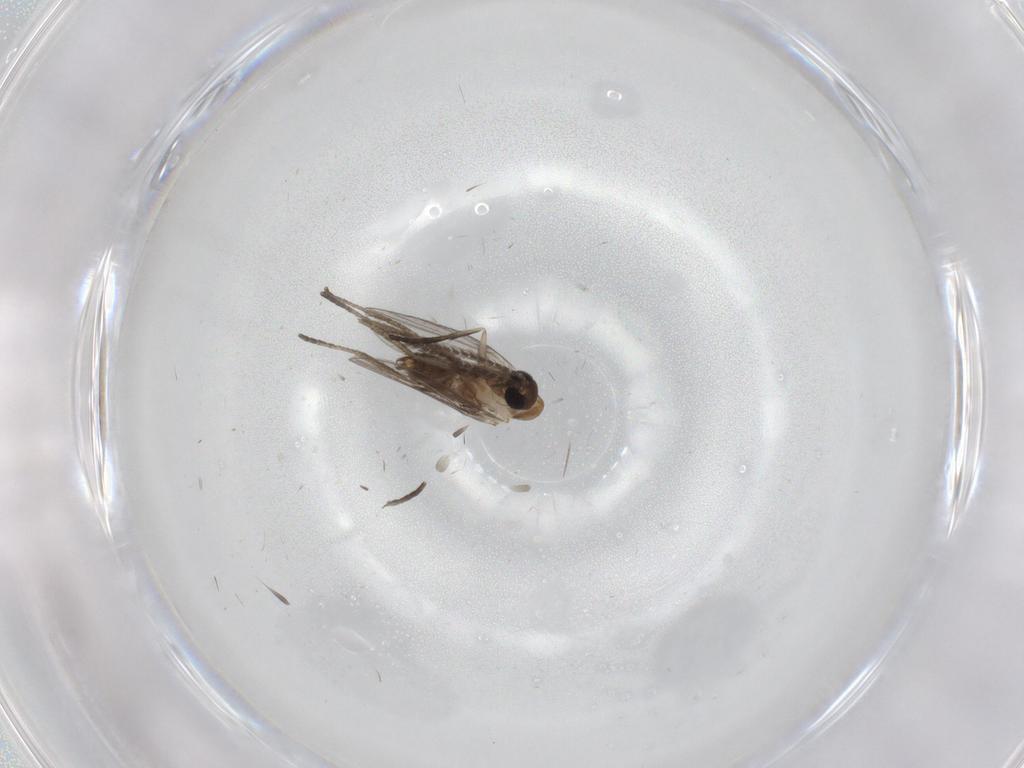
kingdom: Animalia
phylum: Arthropoda
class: Insecta
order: Diptera
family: Psychodidae
